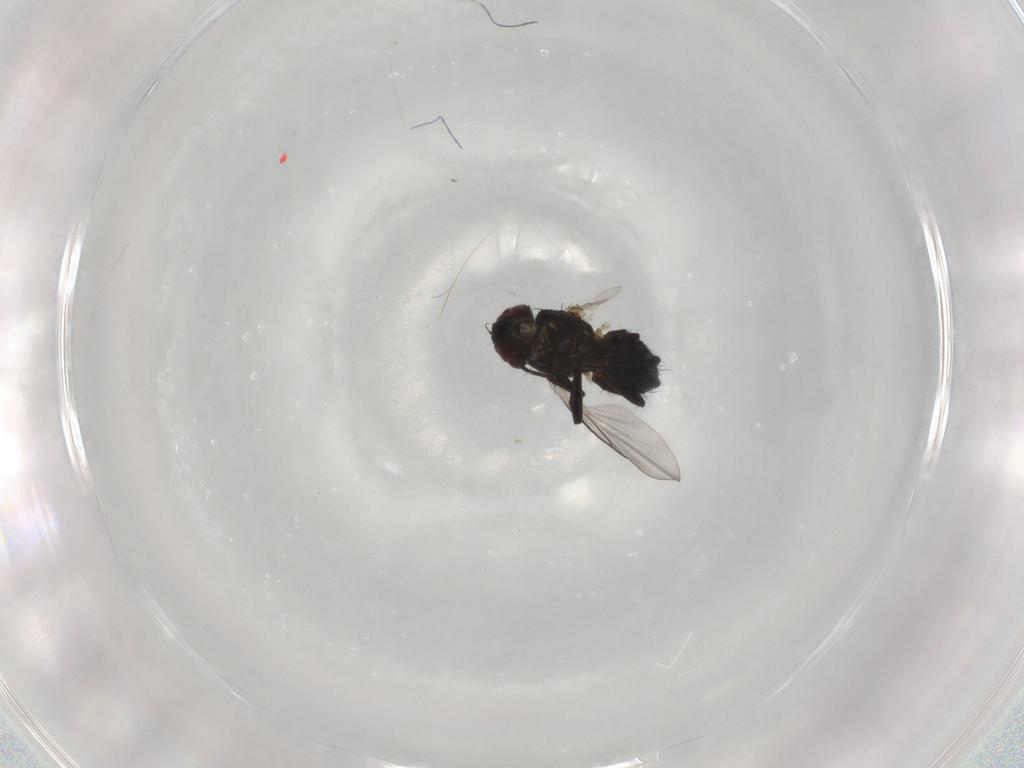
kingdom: Animalia
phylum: Arthropoda
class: Insecta
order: Diptera
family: Agromyzidae
